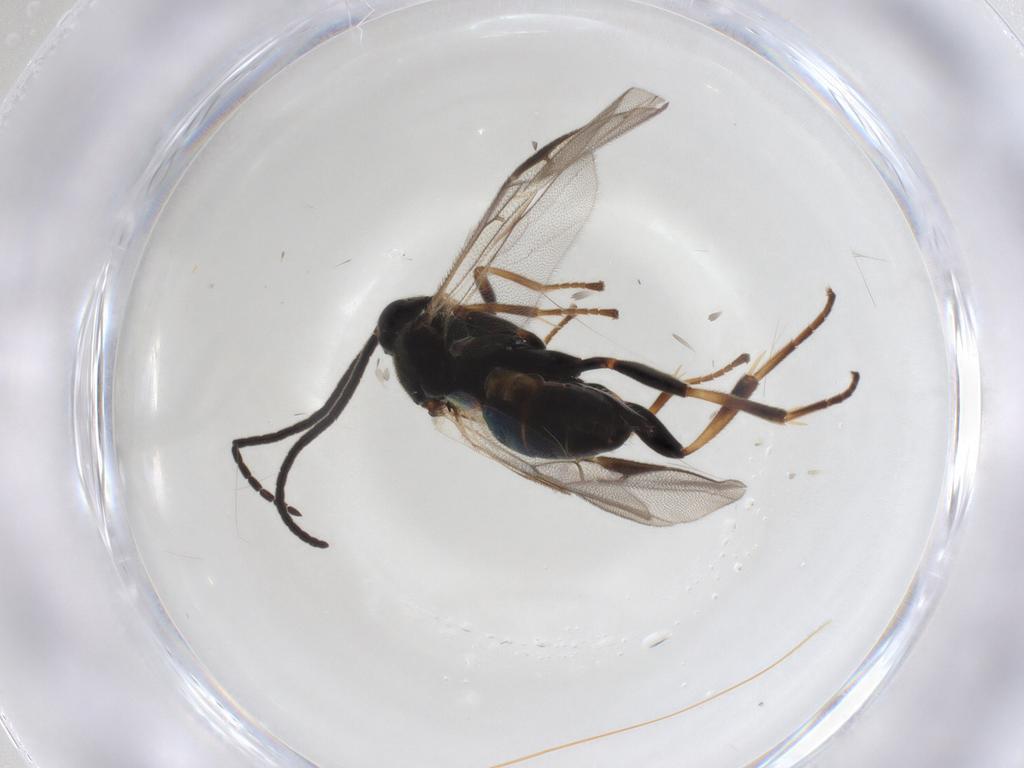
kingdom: Animalia
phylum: Arthropoda
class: Insecta
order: Hymenoptera
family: Braconidae
